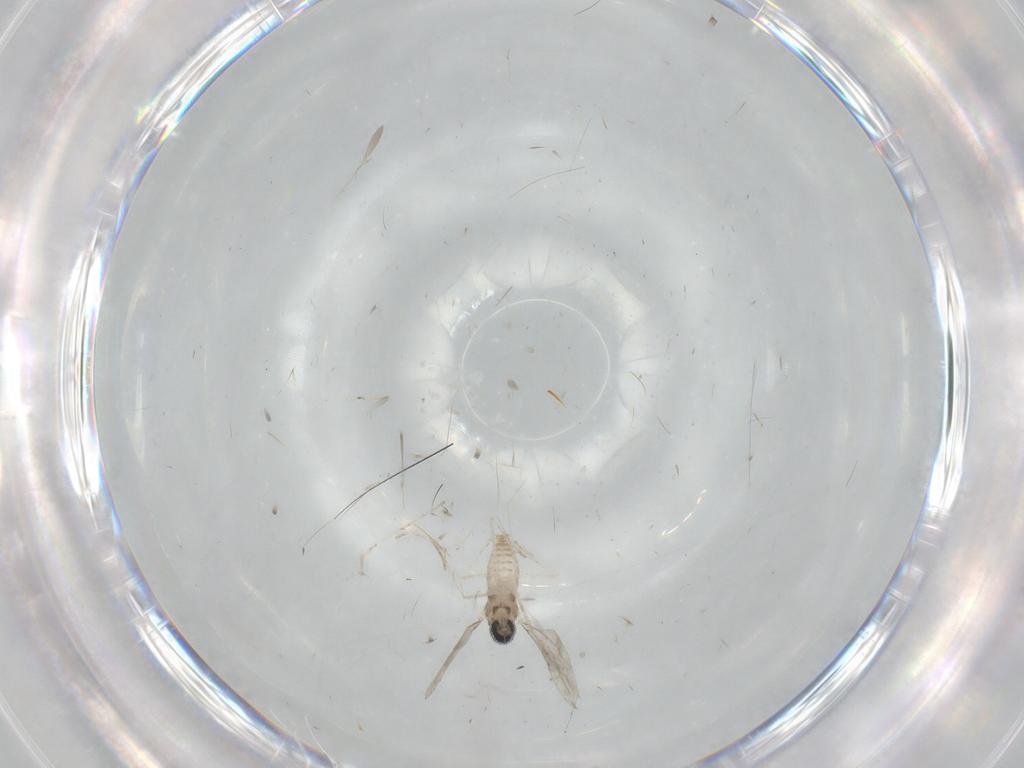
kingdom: Animalia
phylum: Arthropoda
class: Insecta
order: Diptera
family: Cecidomyiidae
